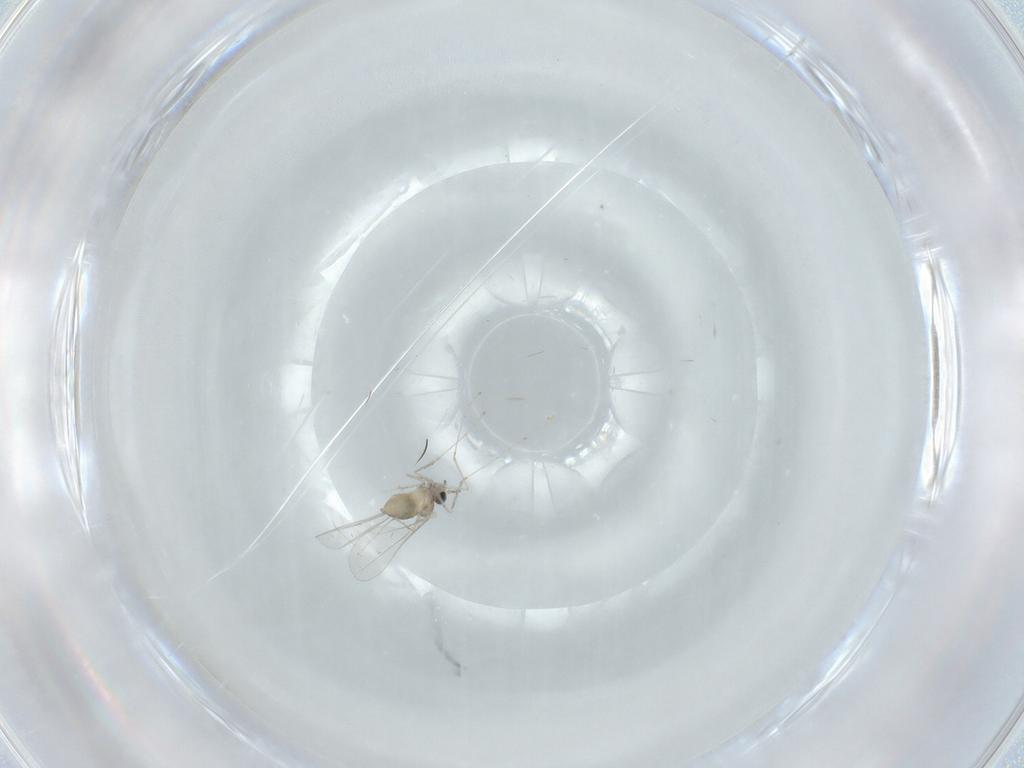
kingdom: Animalia
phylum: Arthropoda
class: Insecta
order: Diptera
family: Cecidomyiidae
